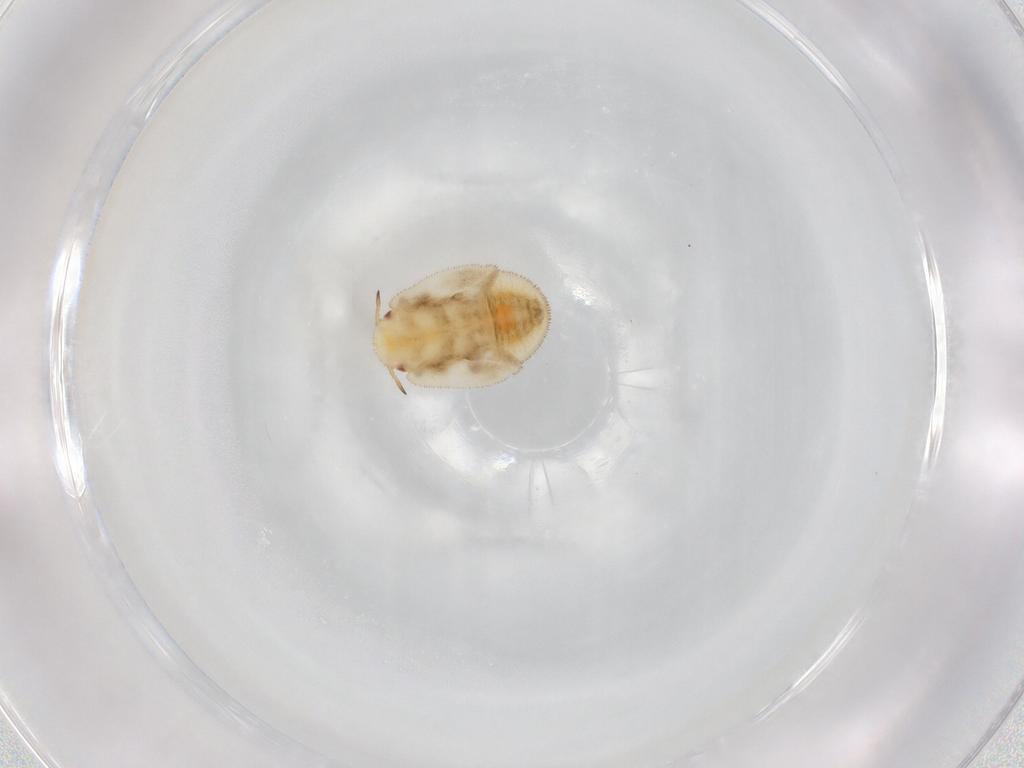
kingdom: Animalia
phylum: Arthropoda
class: Insecta
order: Hemiptera
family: Triozidae
